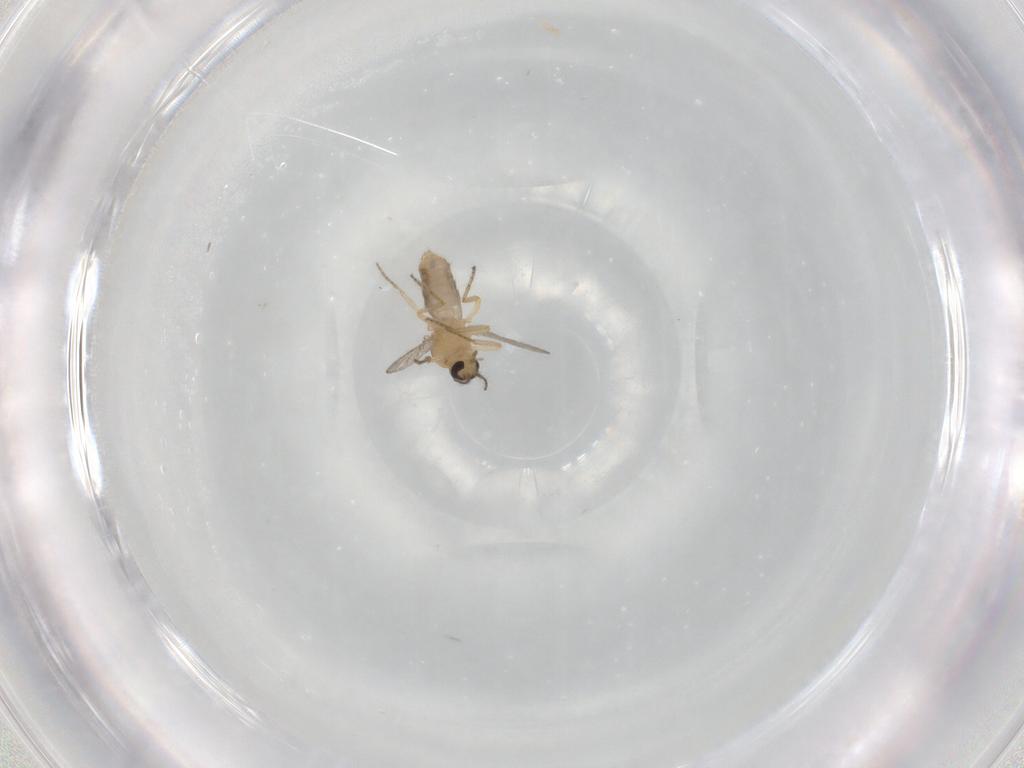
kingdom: Animalia
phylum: Arthropoda
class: Insecta
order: Diptera
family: Ceratopogonidae
